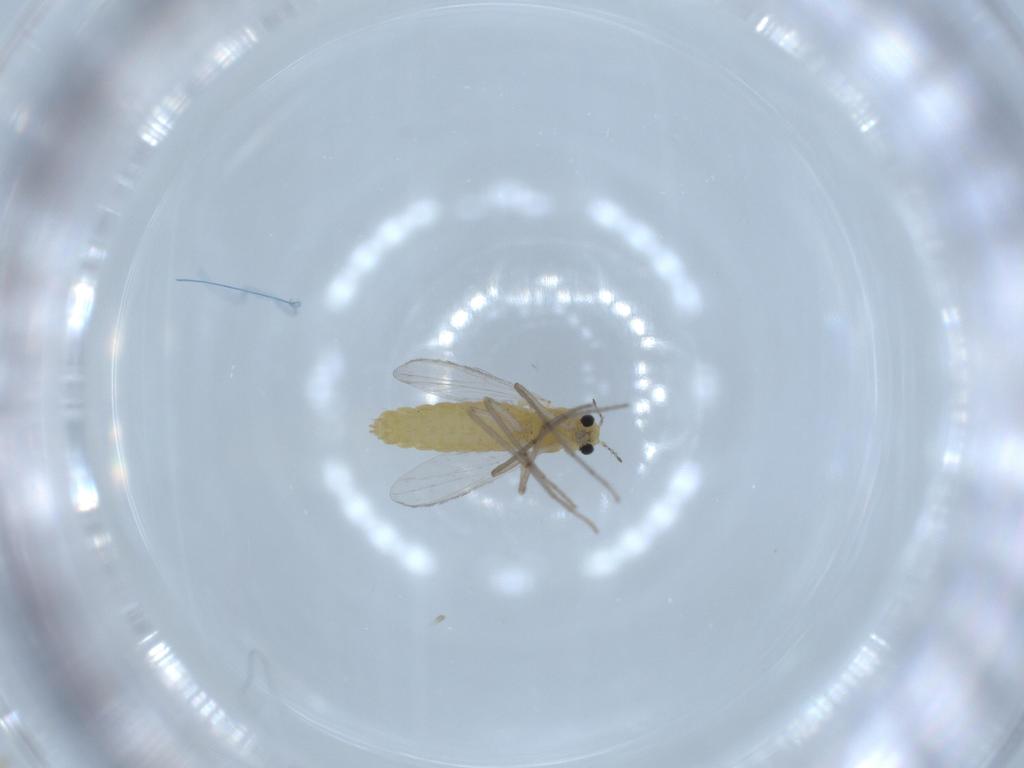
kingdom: Animalia
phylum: Arthropoda
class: Insecta
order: Diptera
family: Chironomidae
